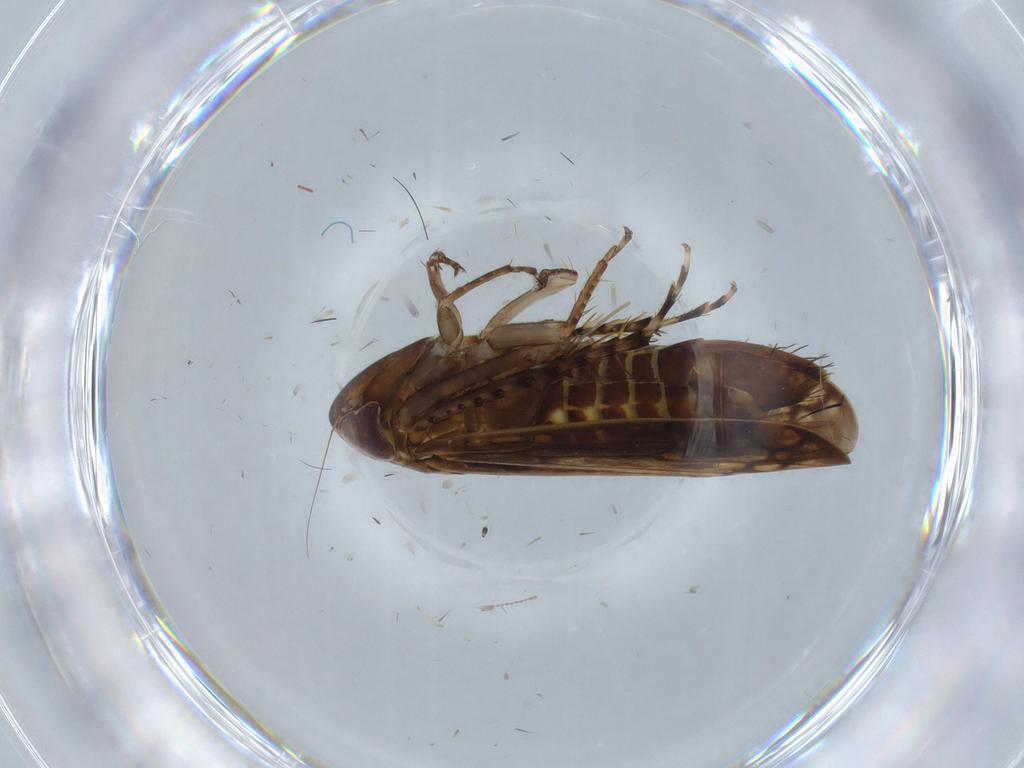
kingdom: Animalia
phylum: Arthropoda
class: Insecta
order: Hemiptera
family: Cicadellidae
